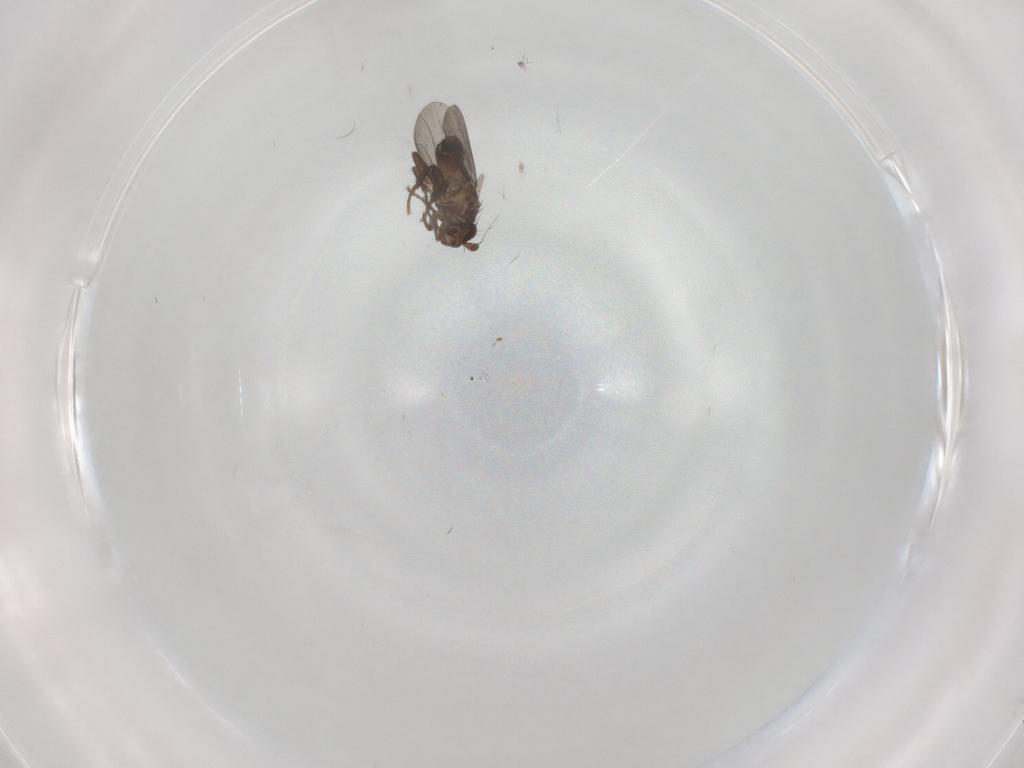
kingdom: Animalia
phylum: Arthropoda
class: Insecta
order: Diptera
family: Sphaeroceridae
